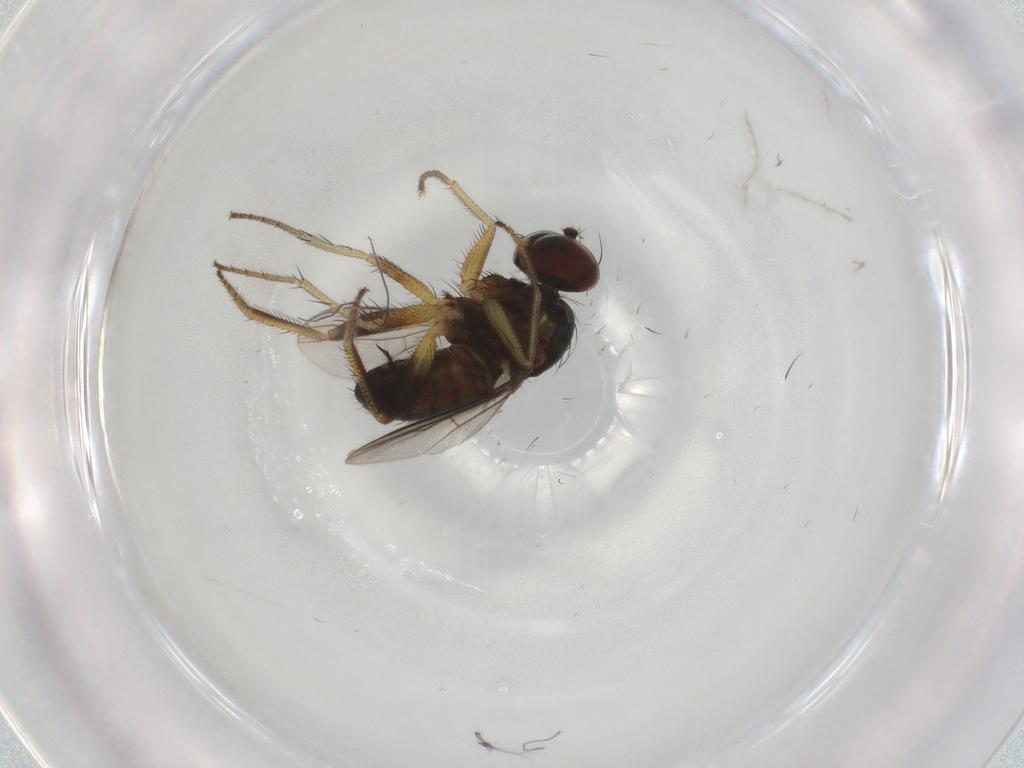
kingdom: Animalia
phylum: Arthropoda
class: Insecta
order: Diptera
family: Dolichopodidae
